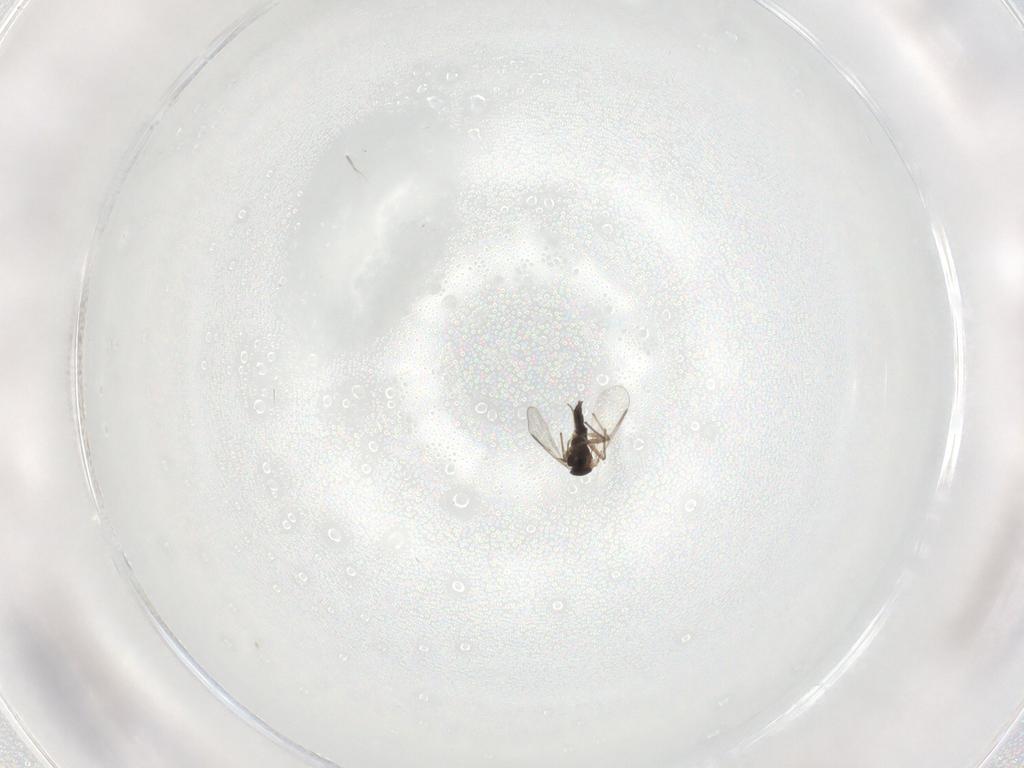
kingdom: Animalia
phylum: Arthropoda
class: Insecta
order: Diptera
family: Chironomidae
